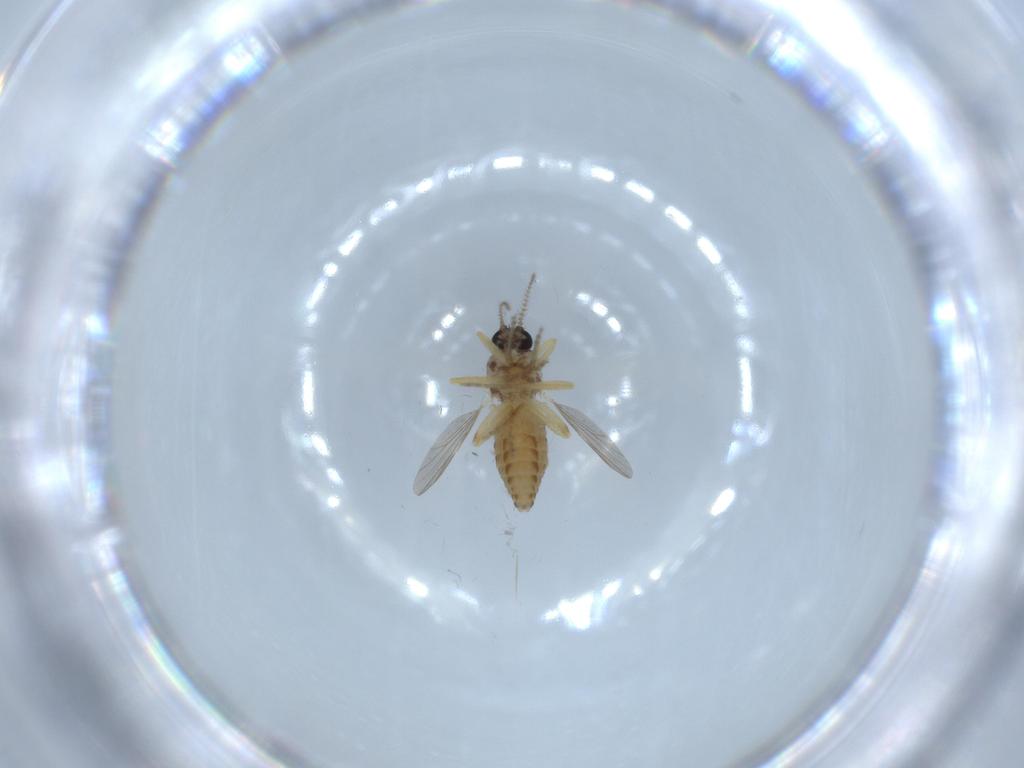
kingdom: Animalia
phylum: Arthropoda
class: Insecta
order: Diptera
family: Ceratopogonidae
